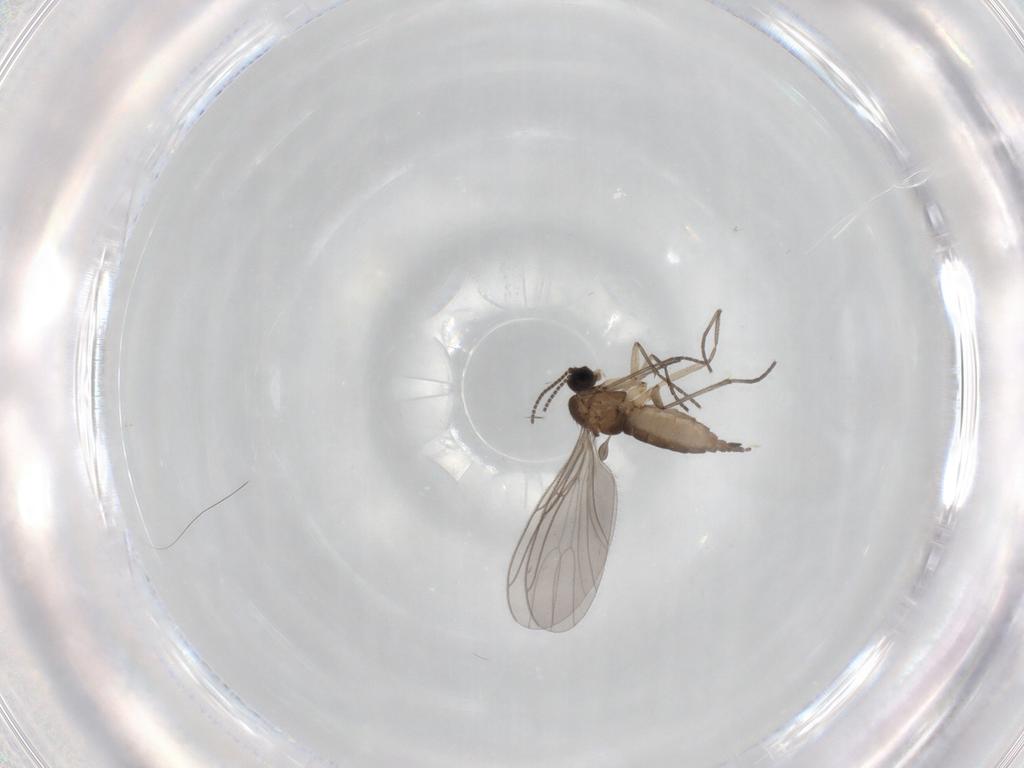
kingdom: Animalia
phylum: Arthropoda
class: Insecta
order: Diptera
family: Sciaridae
